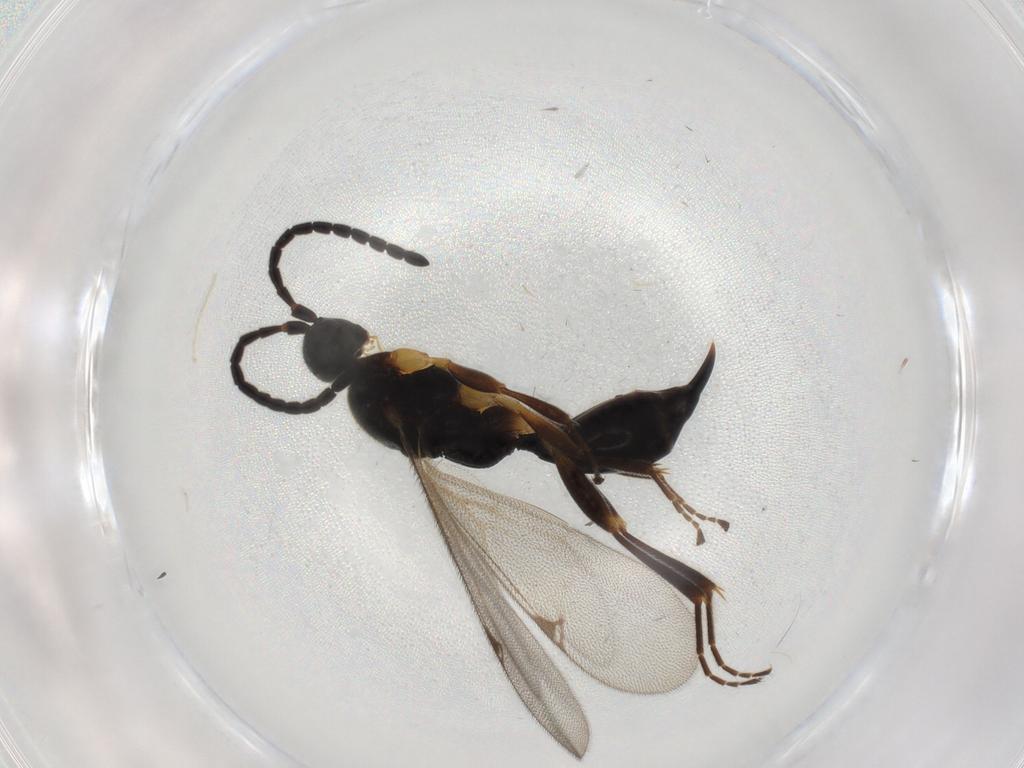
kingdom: Animalia
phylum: Arthropoda
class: Insecta
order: Hymenoptera
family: Proctotrupidae
